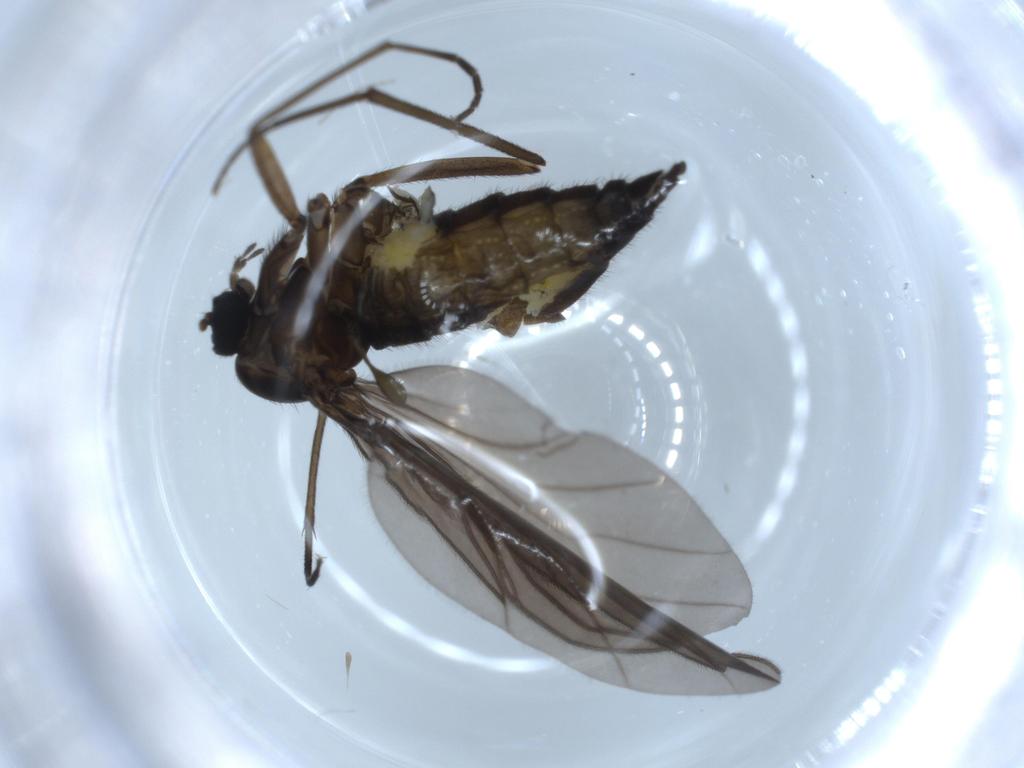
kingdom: Animalia
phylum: Arthropoda
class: Insecta
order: Diptera
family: Sciaridae
